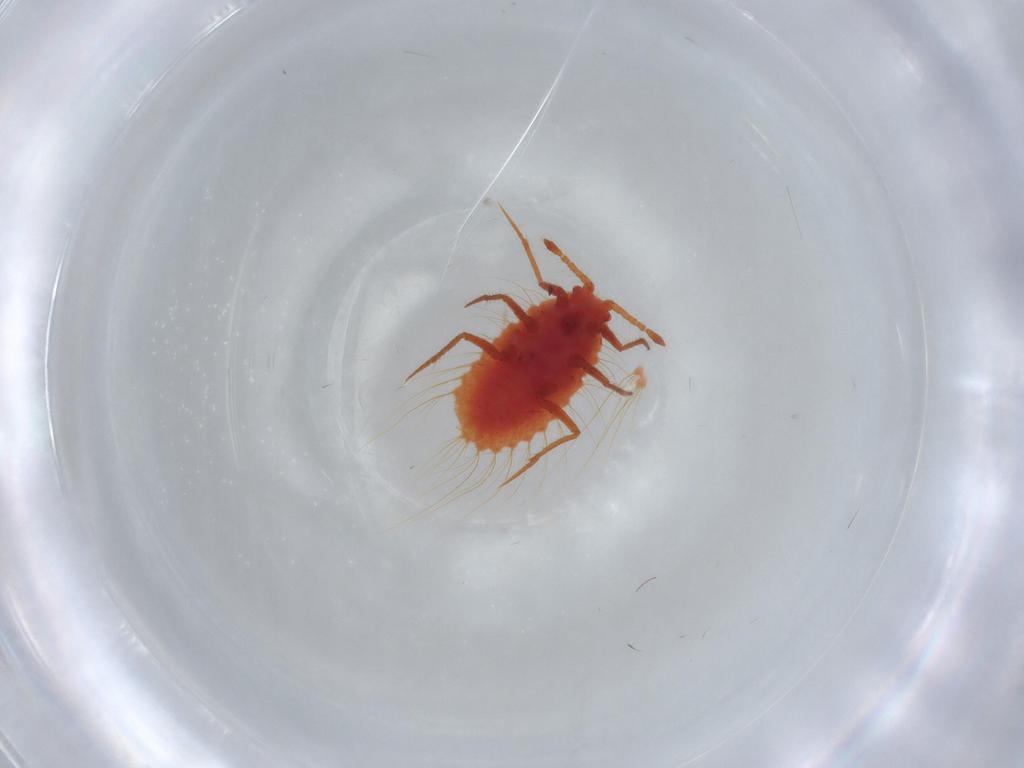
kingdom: Animalia
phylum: Arthropoda
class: Insecta
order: Hemiptera
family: Monophlebidae
